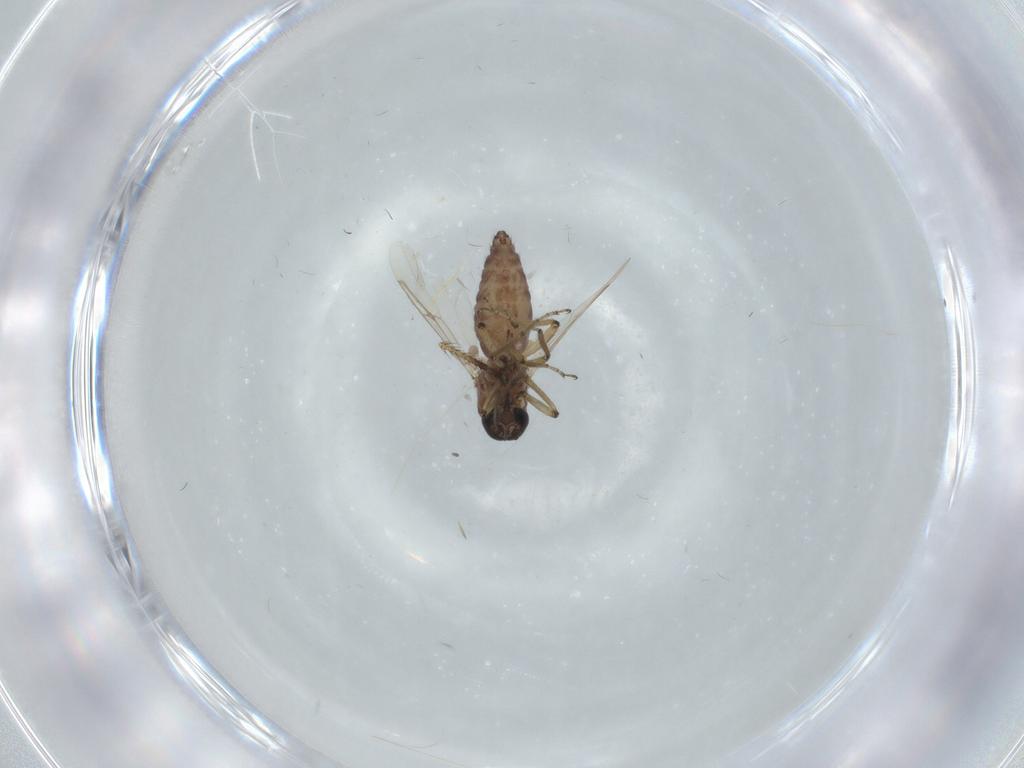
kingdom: Animalia
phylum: Arthropoda
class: Insecta
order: Diptera
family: Limoniidae
